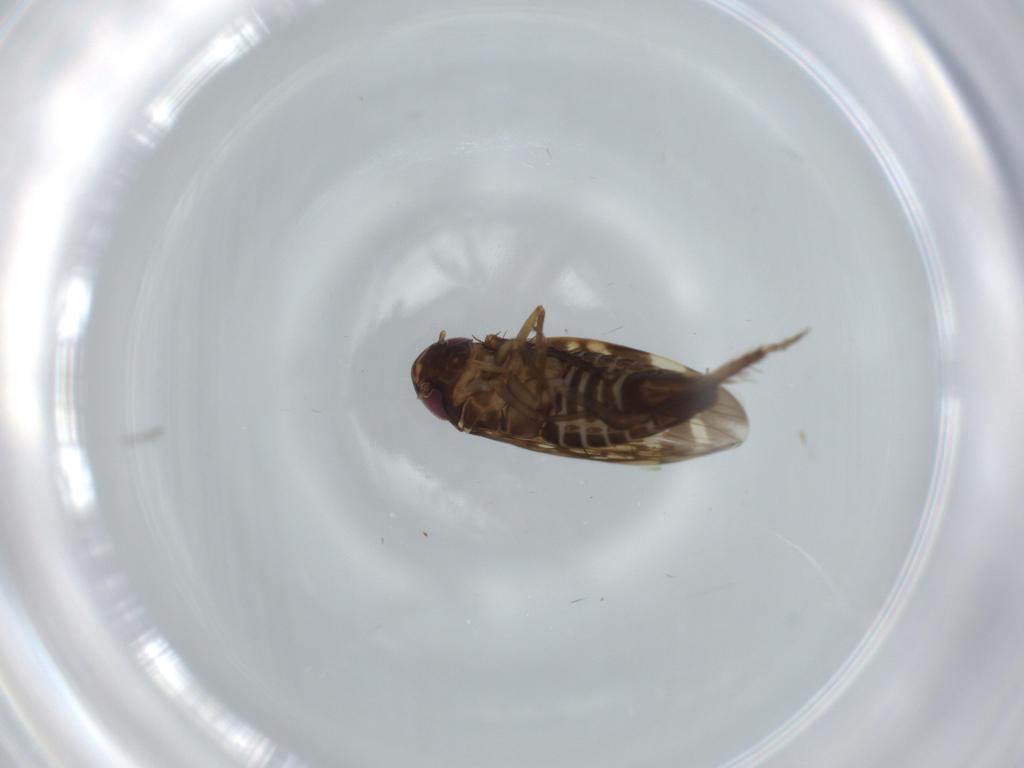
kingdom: Animalia
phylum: Arthropoda
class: Insecta
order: Hemiptera
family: Cicadellidae
